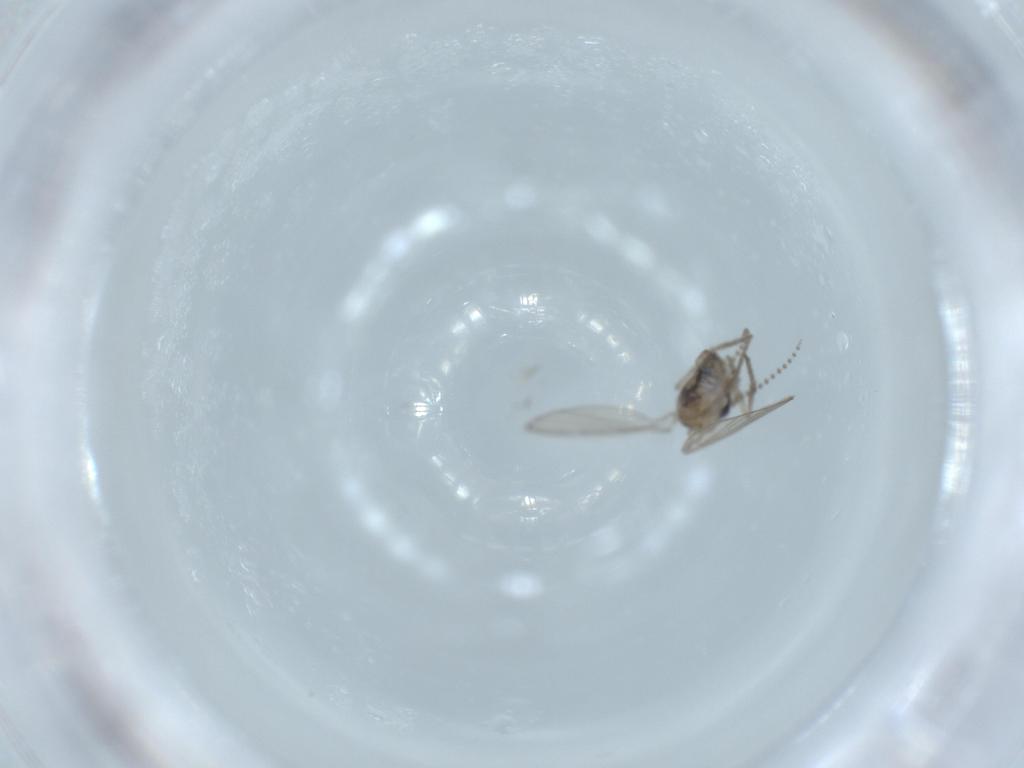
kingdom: Animalia
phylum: Arthropoda
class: Insecta
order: Diptera
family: Psychodidae
